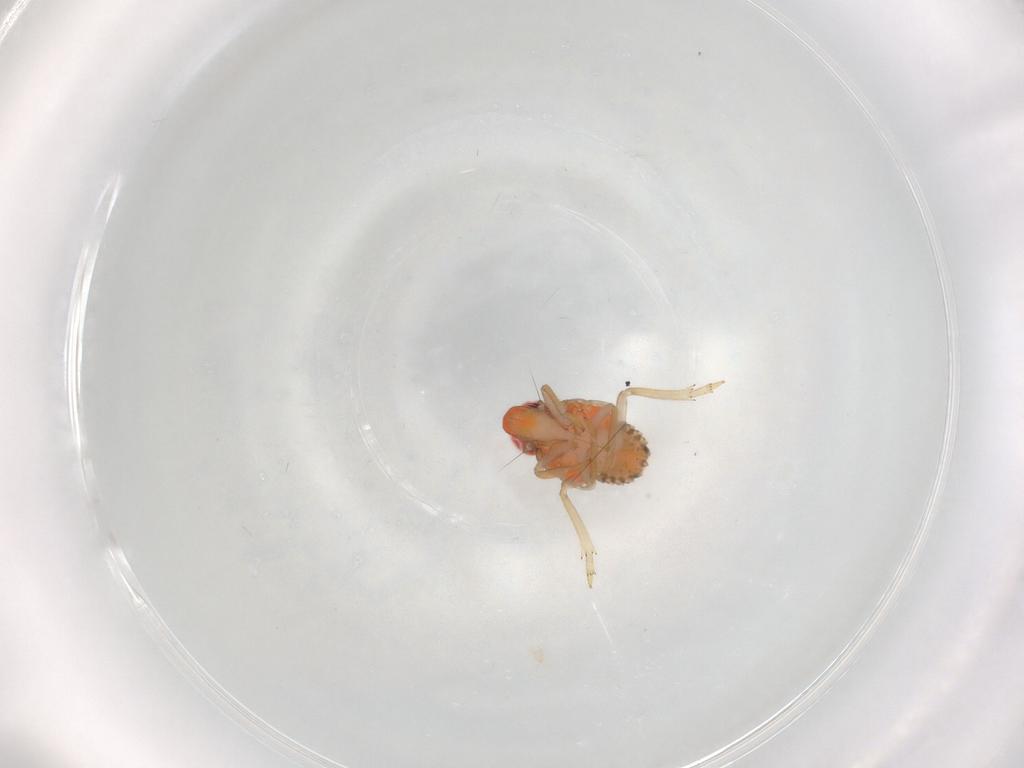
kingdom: Animalia
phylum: Arthropoda
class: Insecta
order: Hemiptera
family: Fulgoroidea_incertae_sedis
